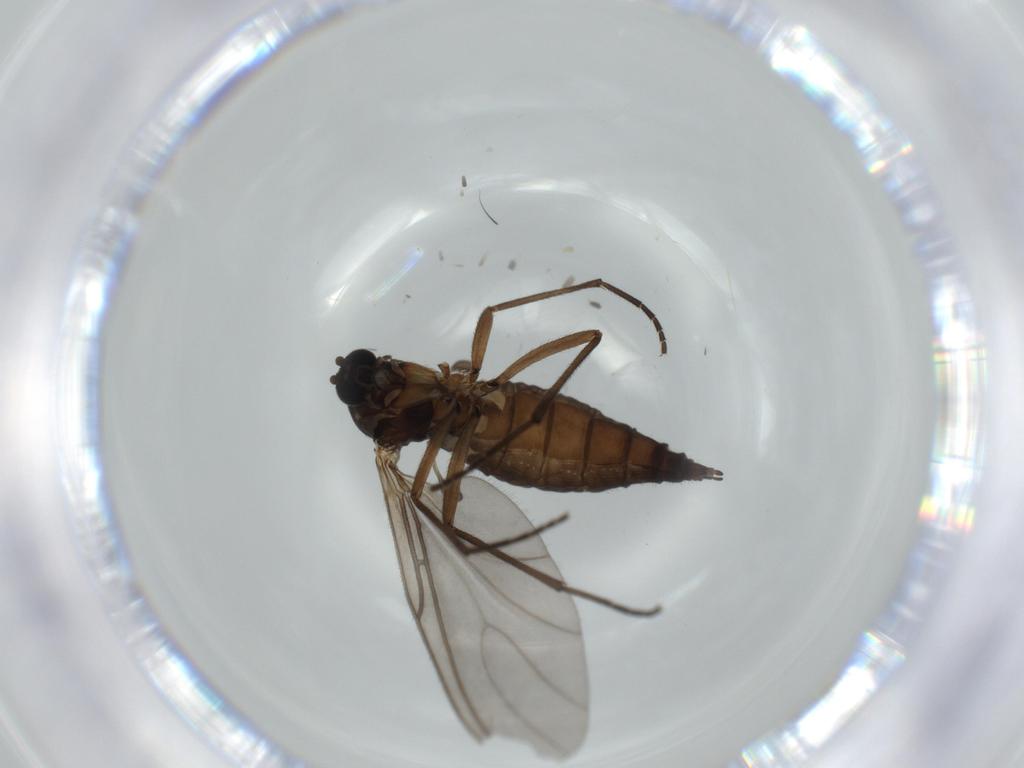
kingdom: Animalia
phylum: Arthropoda
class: Insecta
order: Diptera
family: Sciaridae
